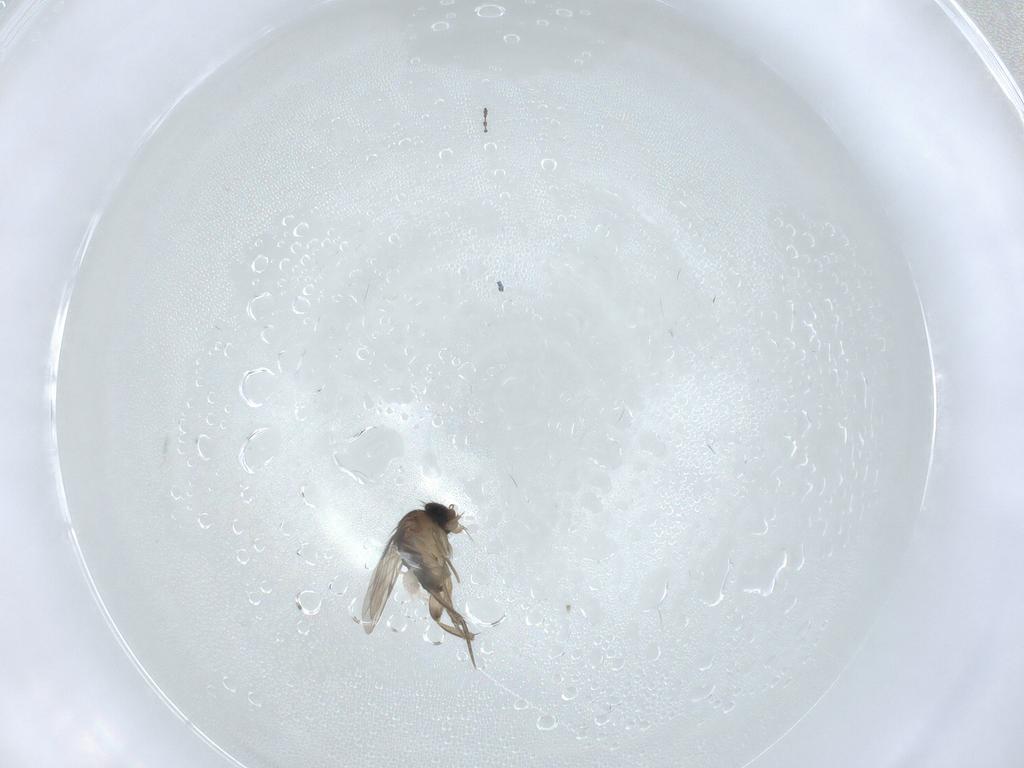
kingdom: Animalia
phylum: Arthropoda
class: Insecta
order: Diptera
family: Phoridae
